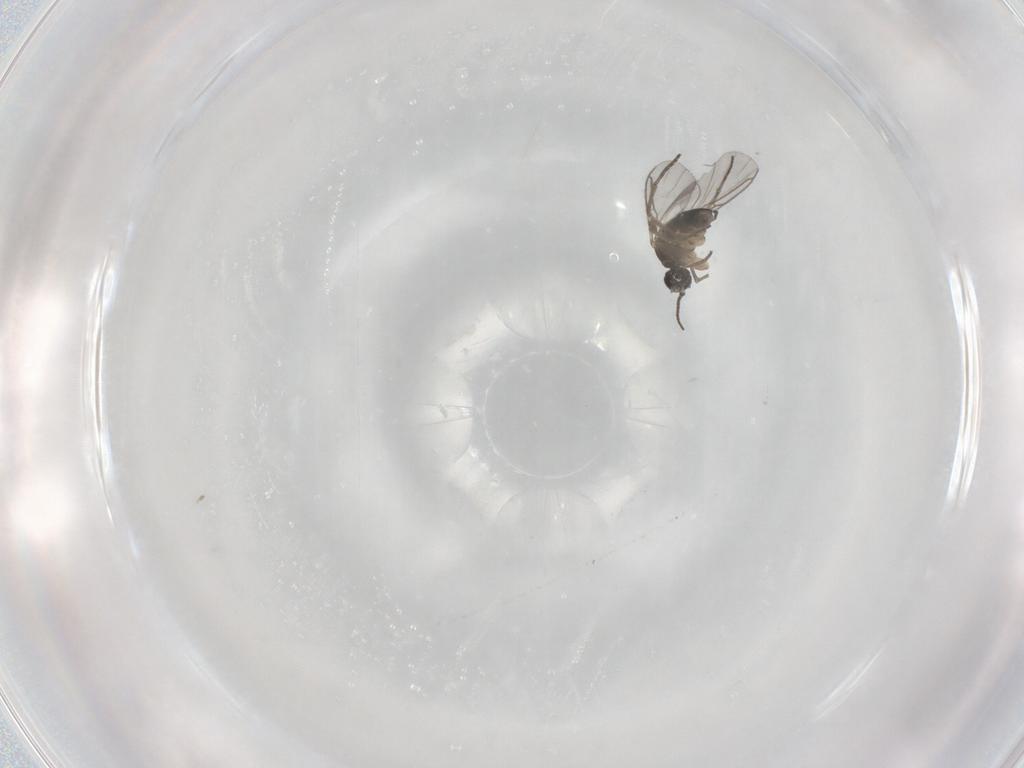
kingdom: Animalia
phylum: Arthropoda
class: Insecta
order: Diptera
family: Sciaridae
